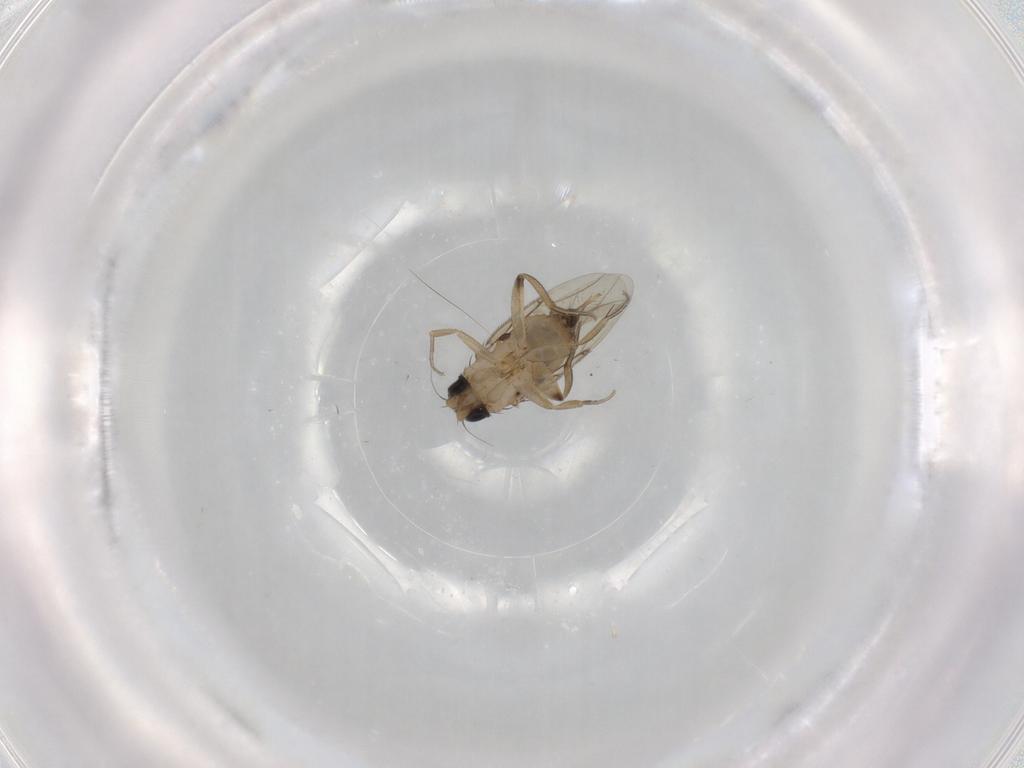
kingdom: Animalia
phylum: Arthropoda
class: Insecta
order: Diptera
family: Phoridae
